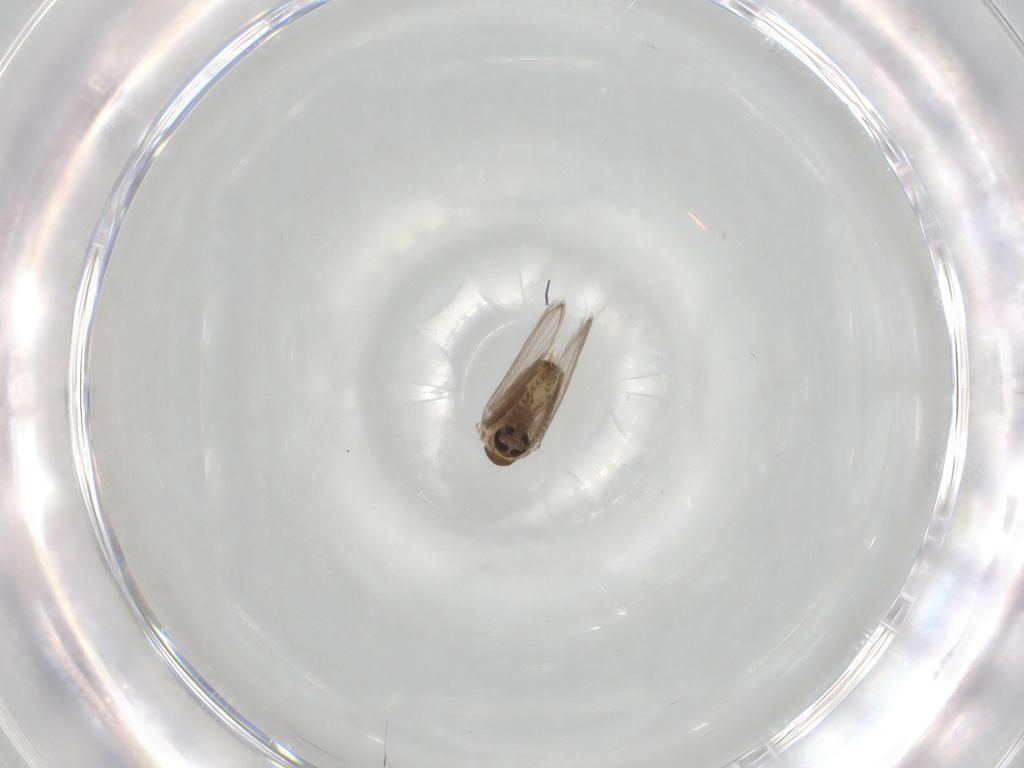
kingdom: Animalia
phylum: Arthropoda
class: Insecta
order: Diptera
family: Psychodidae
